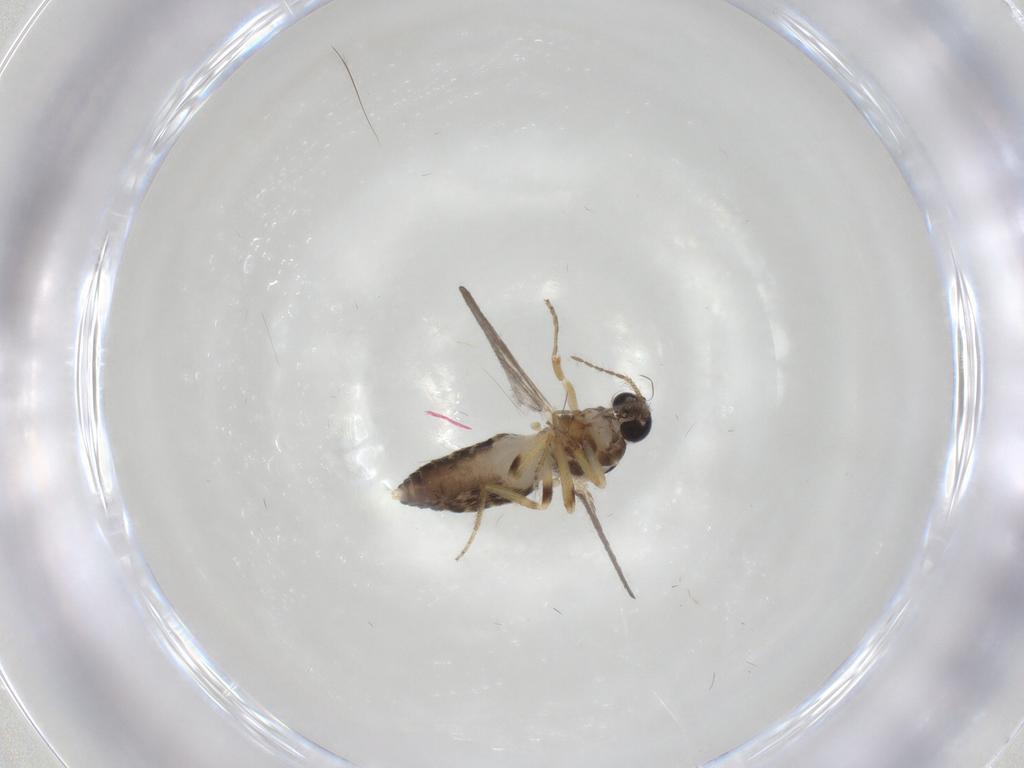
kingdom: Animalia
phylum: Arthropoda
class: Insecta
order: Diptera
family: Ceratopogonidae
